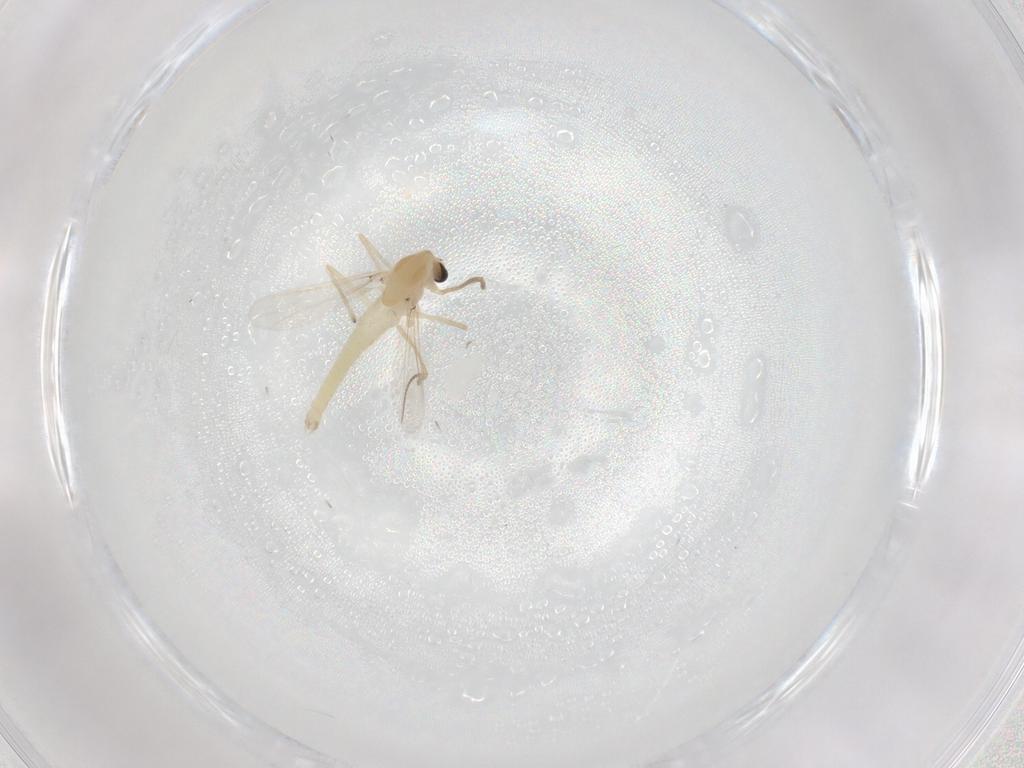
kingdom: Animalia
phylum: Arthropoda
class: Insecta
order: Diptera
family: Chironomidae
